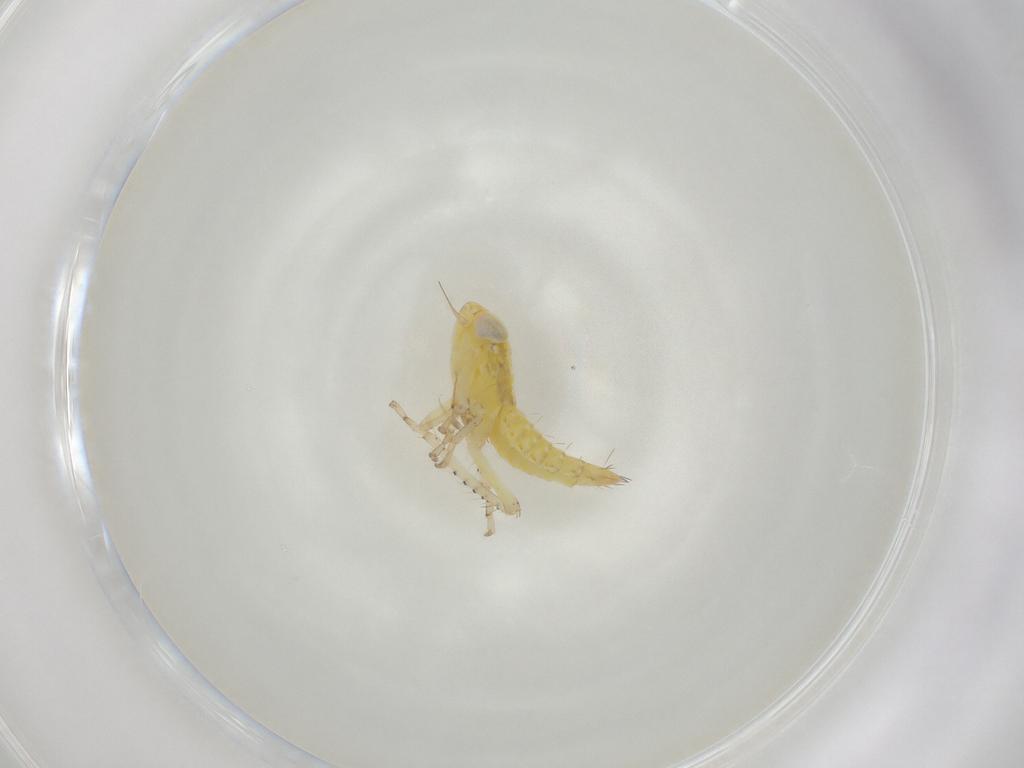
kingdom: Animalia
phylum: Arthropoda
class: Insecta
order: Hemiptera
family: Cicadellidae
